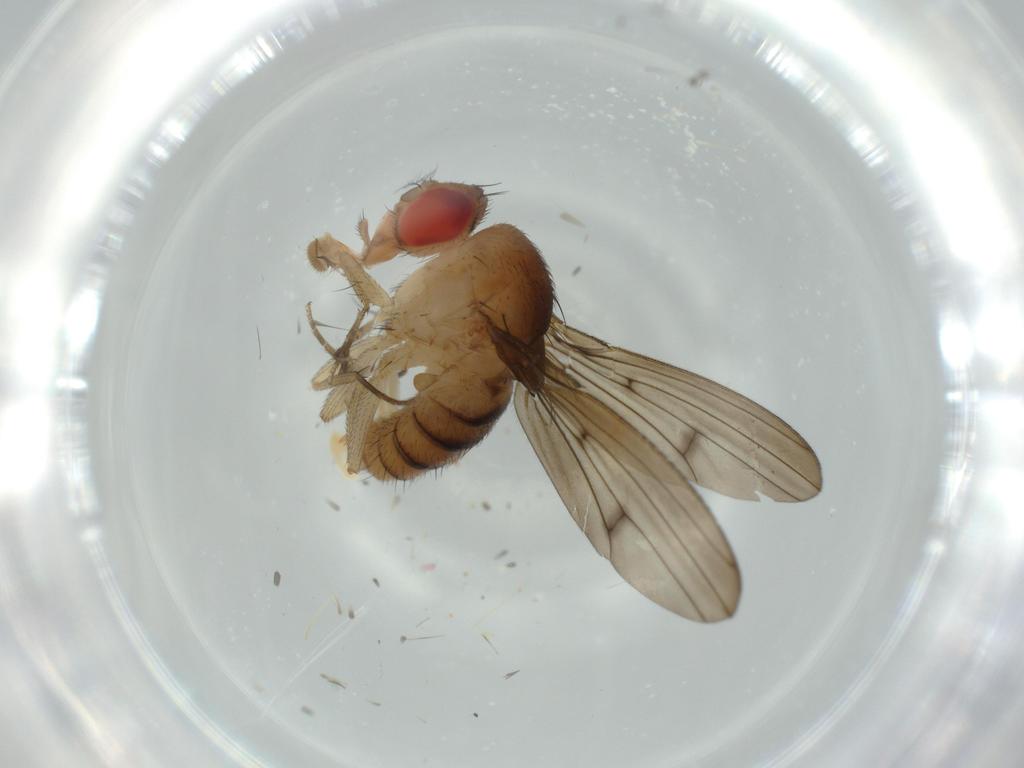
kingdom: Animalia
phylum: Arthropoda
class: Insecta
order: Diptera
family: Drosophilidae
